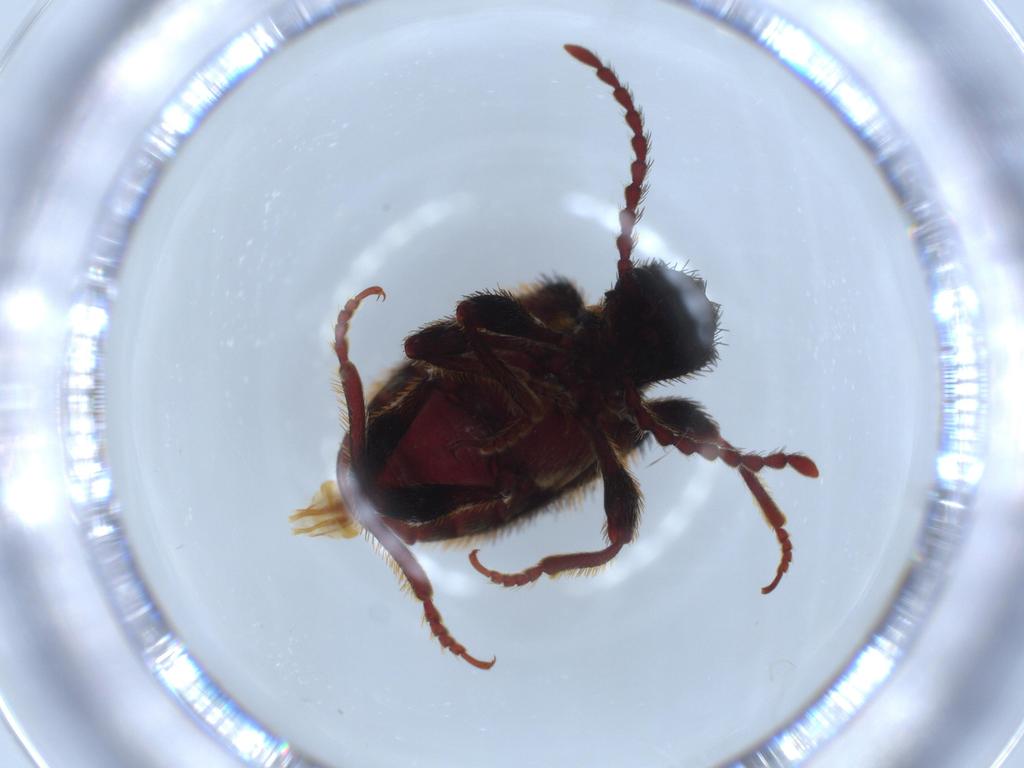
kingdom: Animalia
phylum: Arthropoda
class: Insecta
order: Coleoptera
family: Ptinidae
